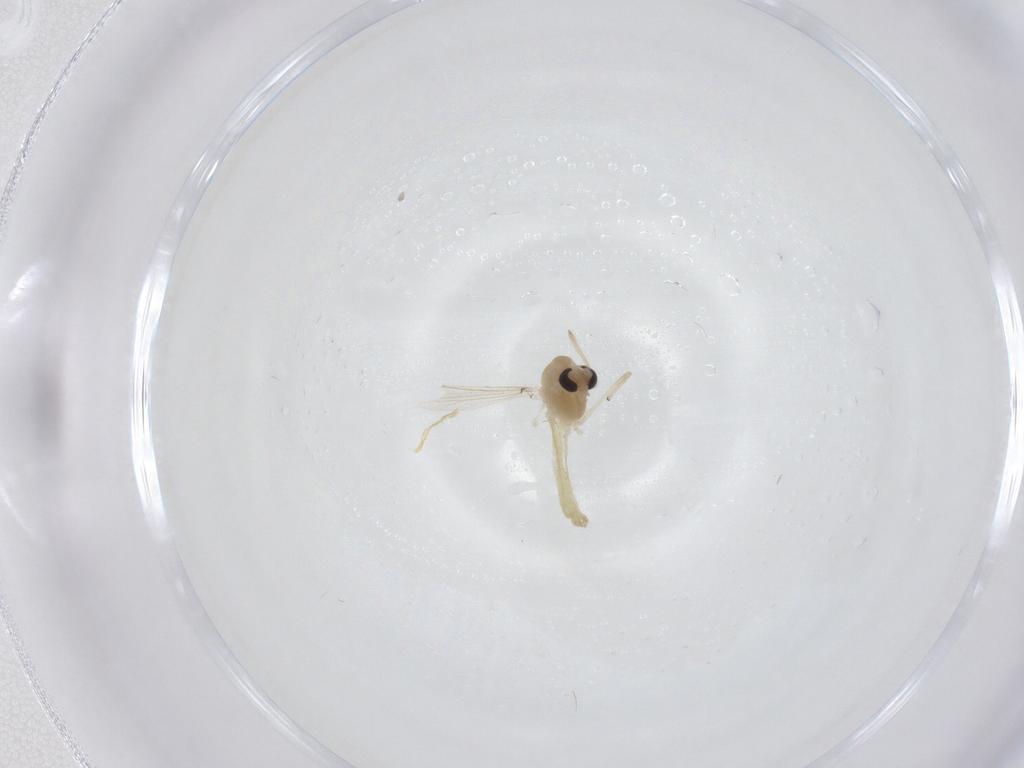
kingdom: Animalia
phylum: Arthropoda
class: Insecta
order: Diptera
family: Chironomidae
